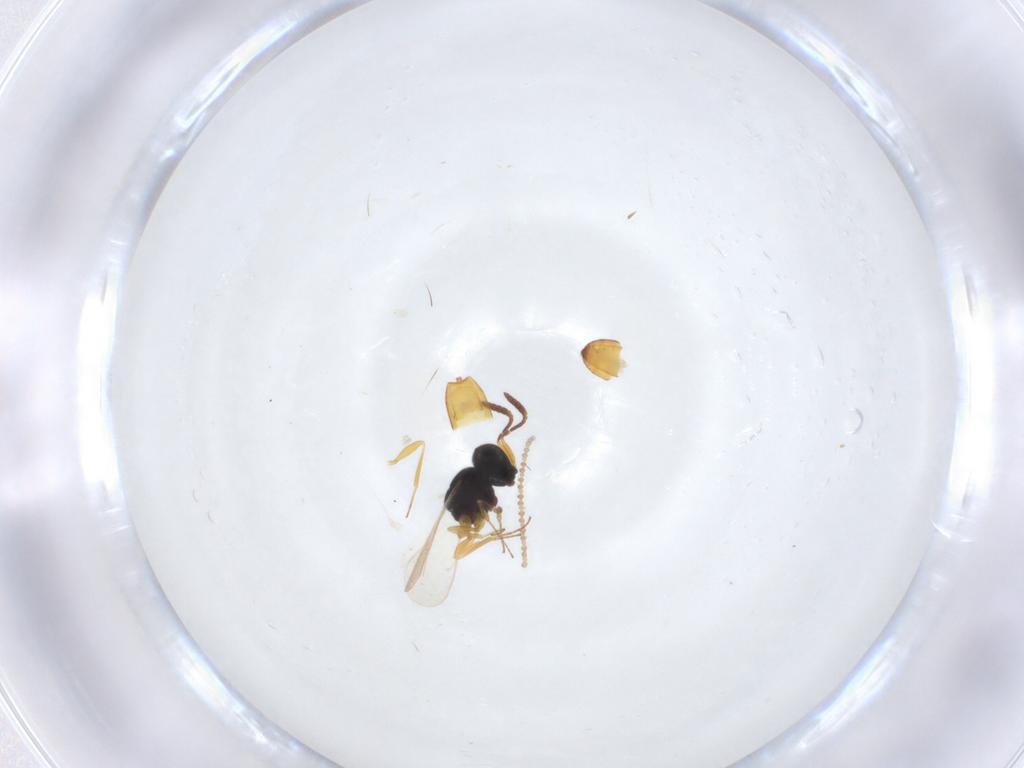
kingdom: Animalia
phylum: Arthropoda
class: Insecta
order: Hymenoptera
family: Scelionidae
